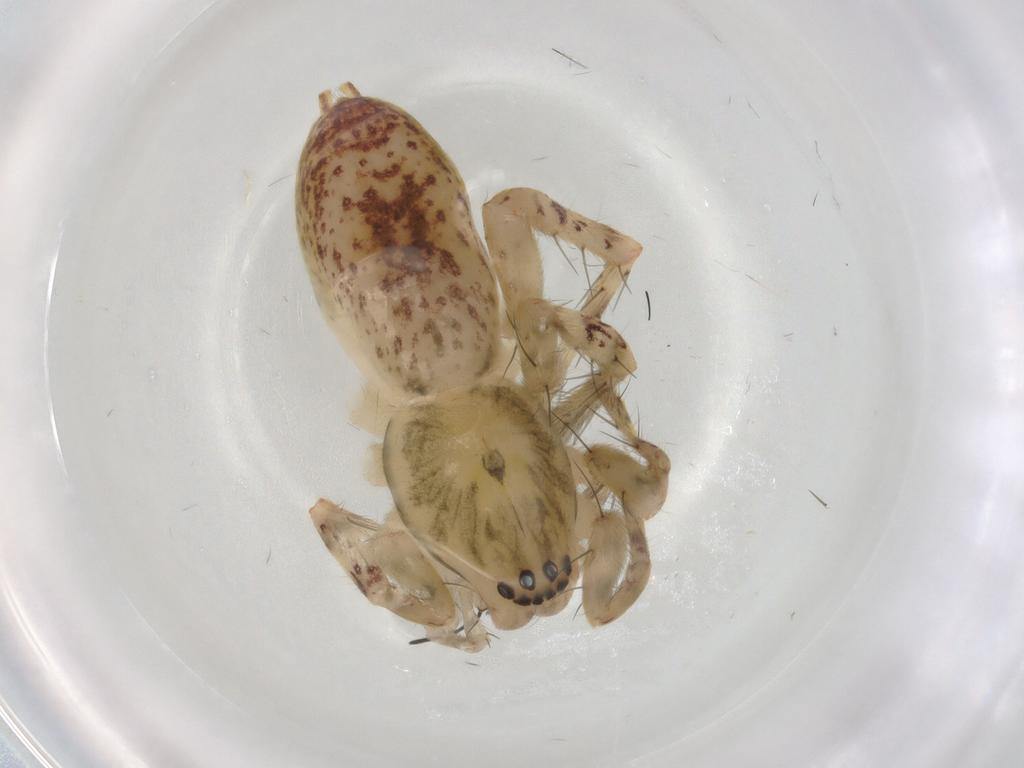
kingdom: Animalia
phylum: Arthropoda
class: Arachnida
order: Araneae
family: Anyphaenidae
